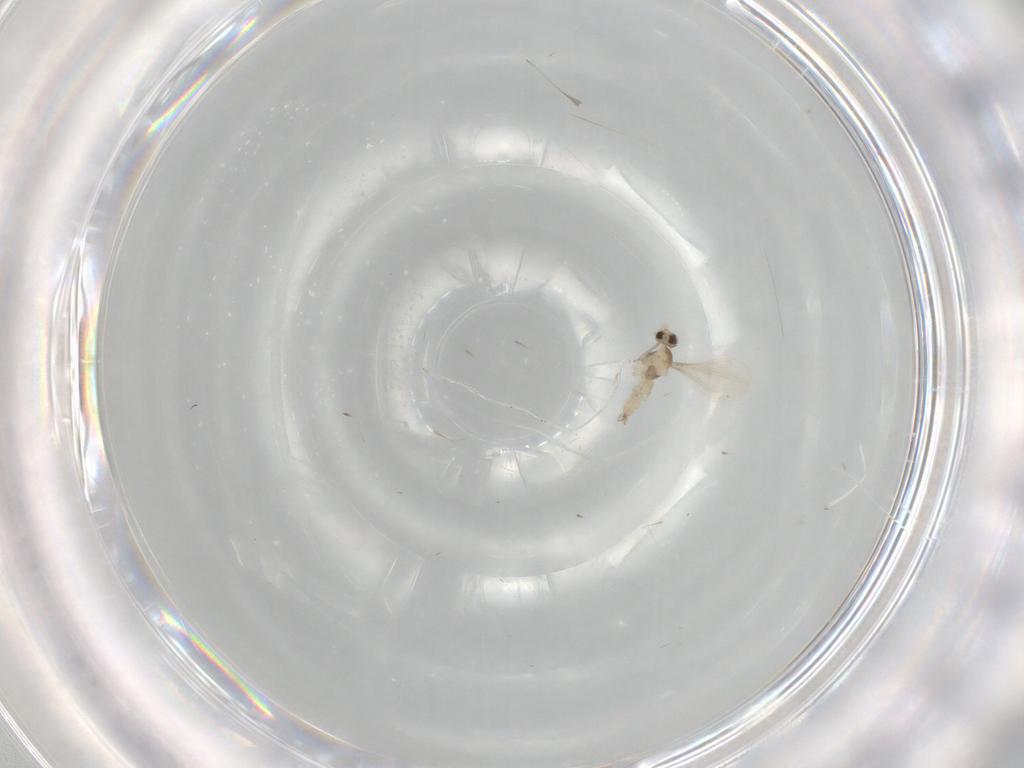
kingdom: Animalia
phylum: Arthropoda
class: Insecta
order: Diptera
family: Cecidomyiidae
